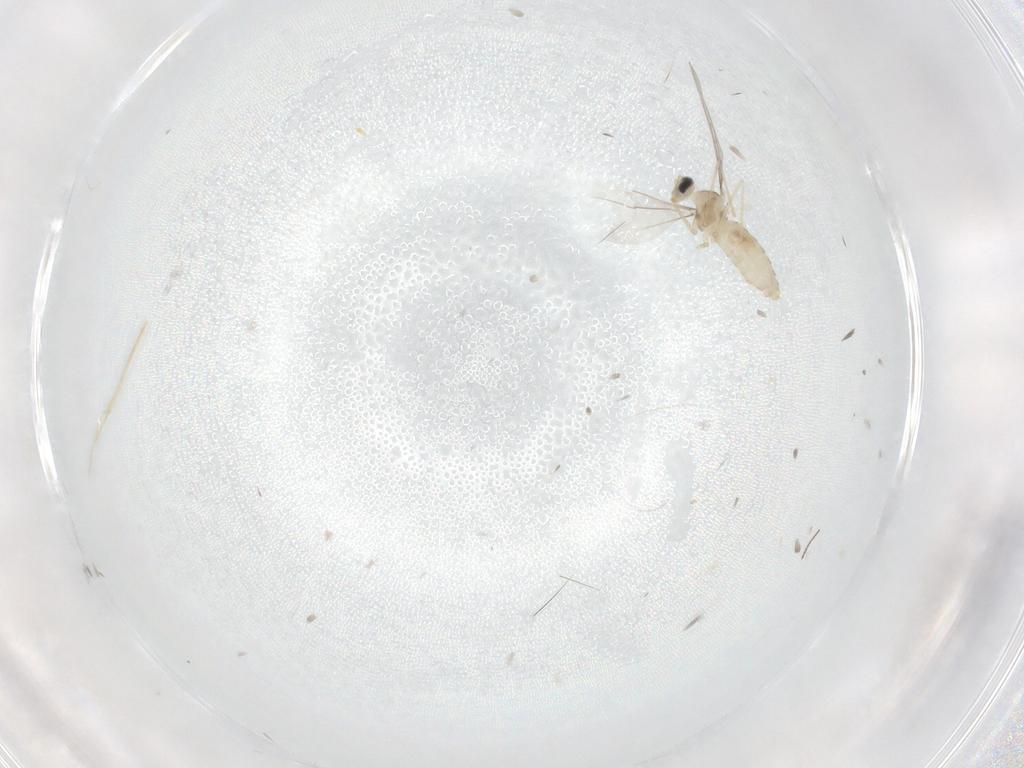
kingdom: Animalia
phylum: Arthropoda
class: Insecta
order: Diptera
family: Cecidomyiidae
